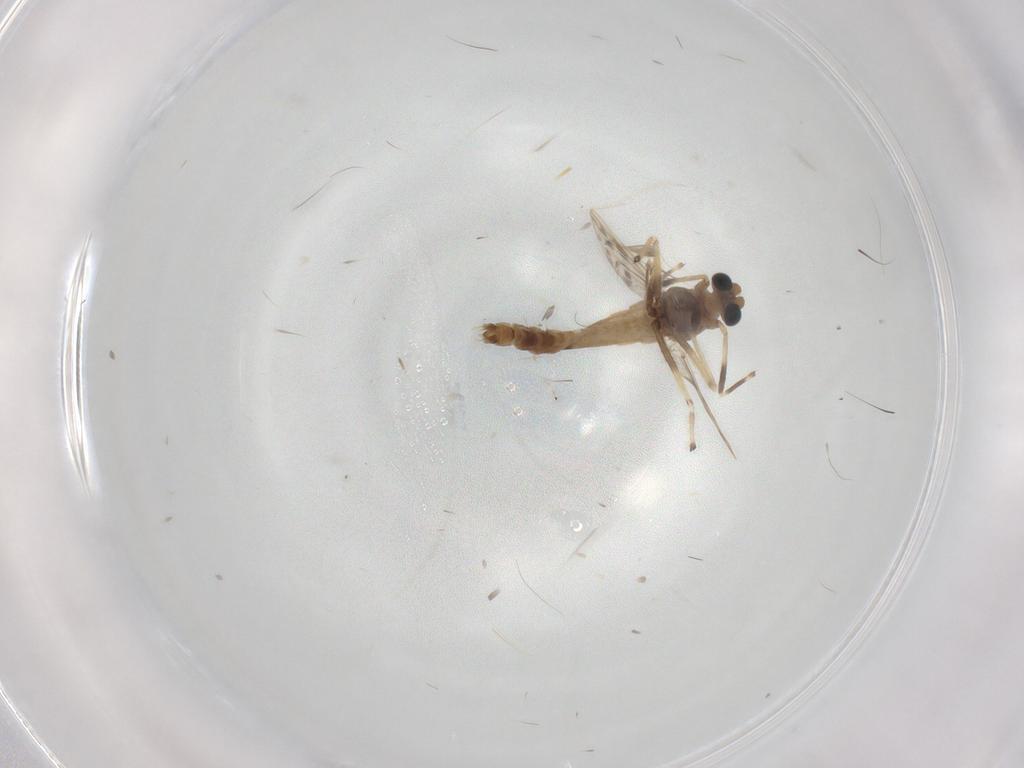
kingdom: Animalia
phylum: Arthropoda
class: Insecta
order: Diptera
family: Chironomidae
